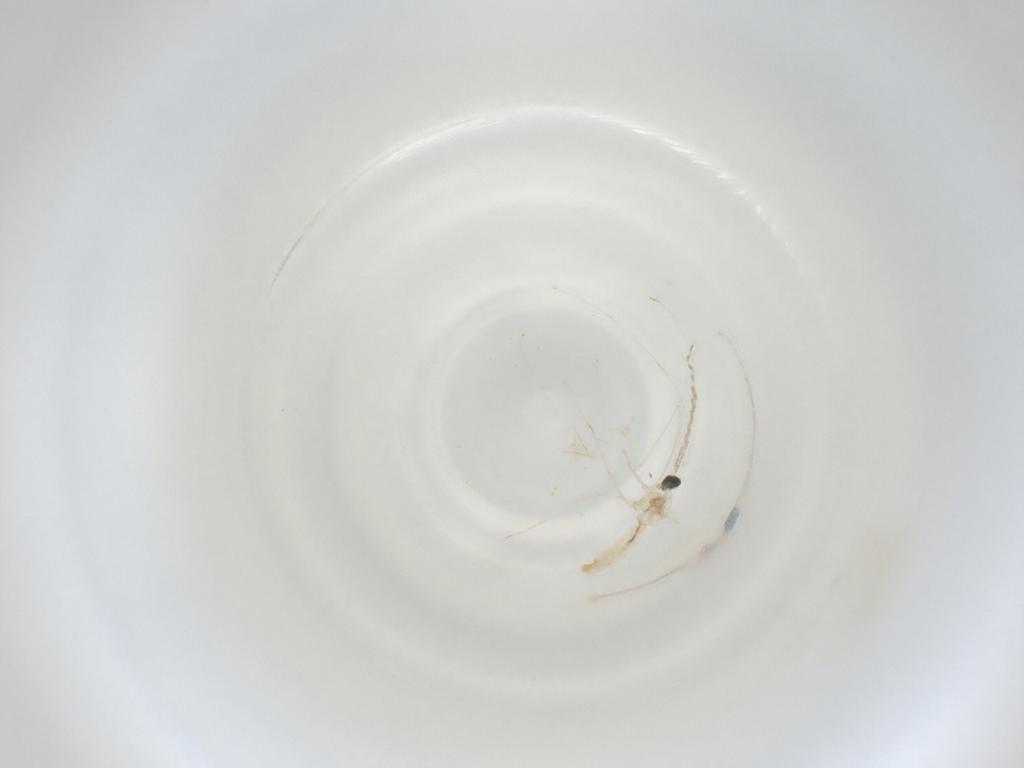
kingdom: Animalia
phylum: Arthropoda
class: Insecta
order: Diptera
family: Cecidomyiidae
